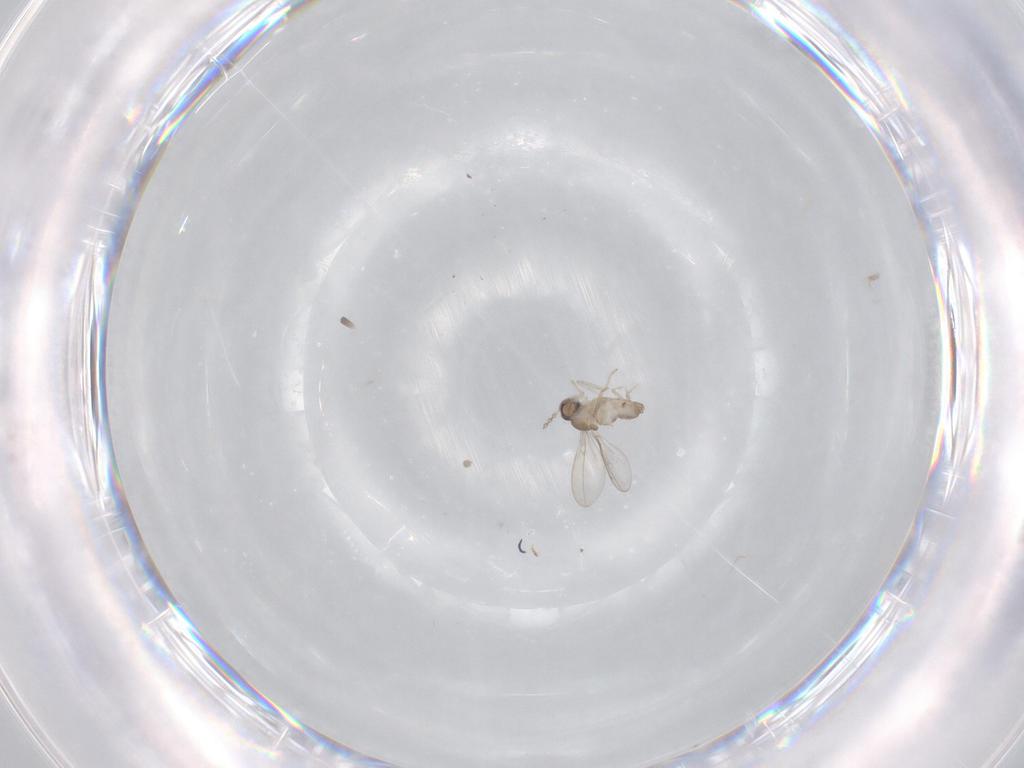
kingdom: Animalia
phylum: Arthropoda
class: Insecta
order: Diptera
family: Cecidomyiidae
